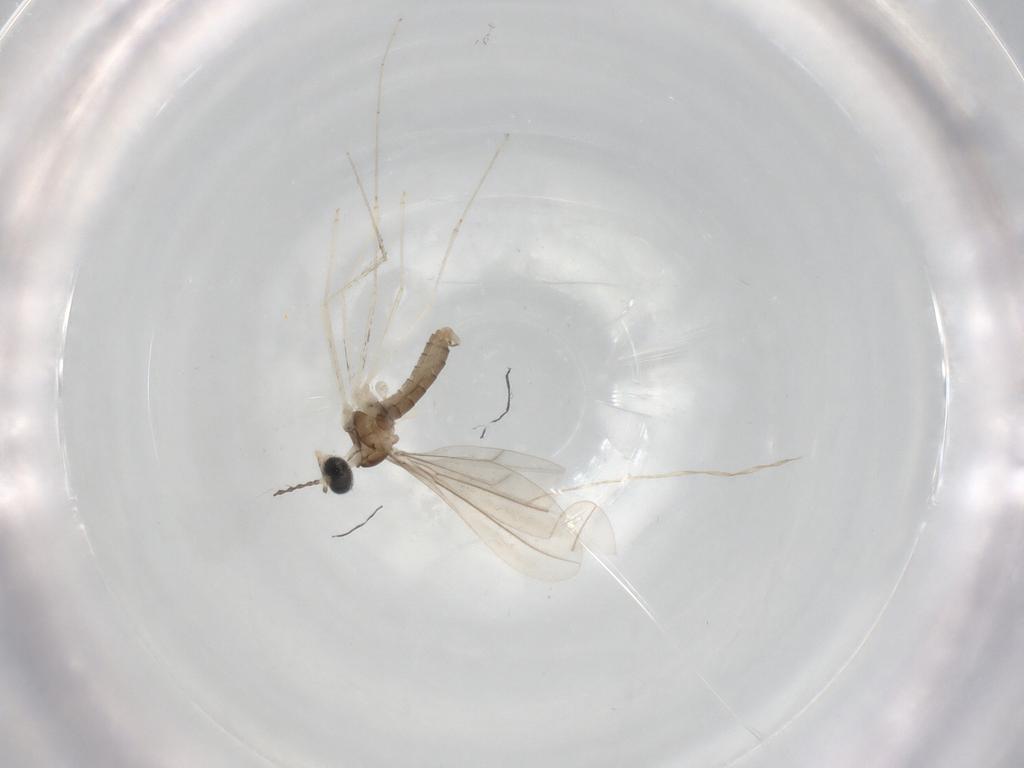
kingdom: Animalia
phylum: Arthropoda
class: Insecta
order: Diptera
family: Cecidomyiidae
